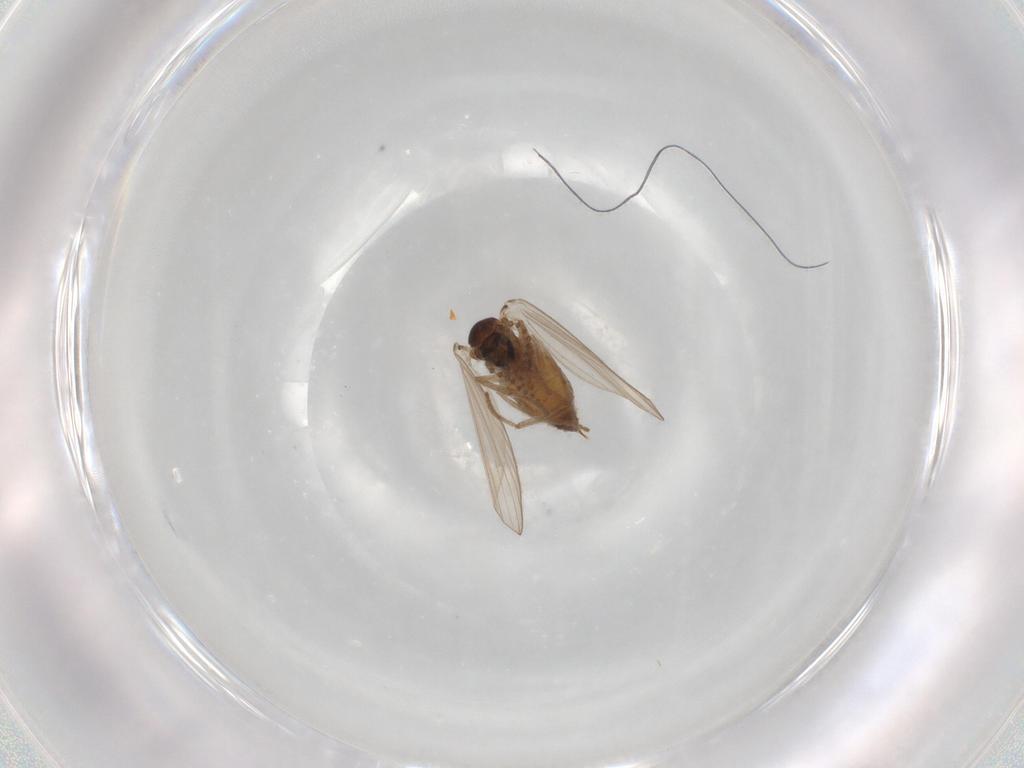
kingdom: Animalia
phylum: Arthropoda
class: Insecta
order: Diptera
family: Psychodidae
